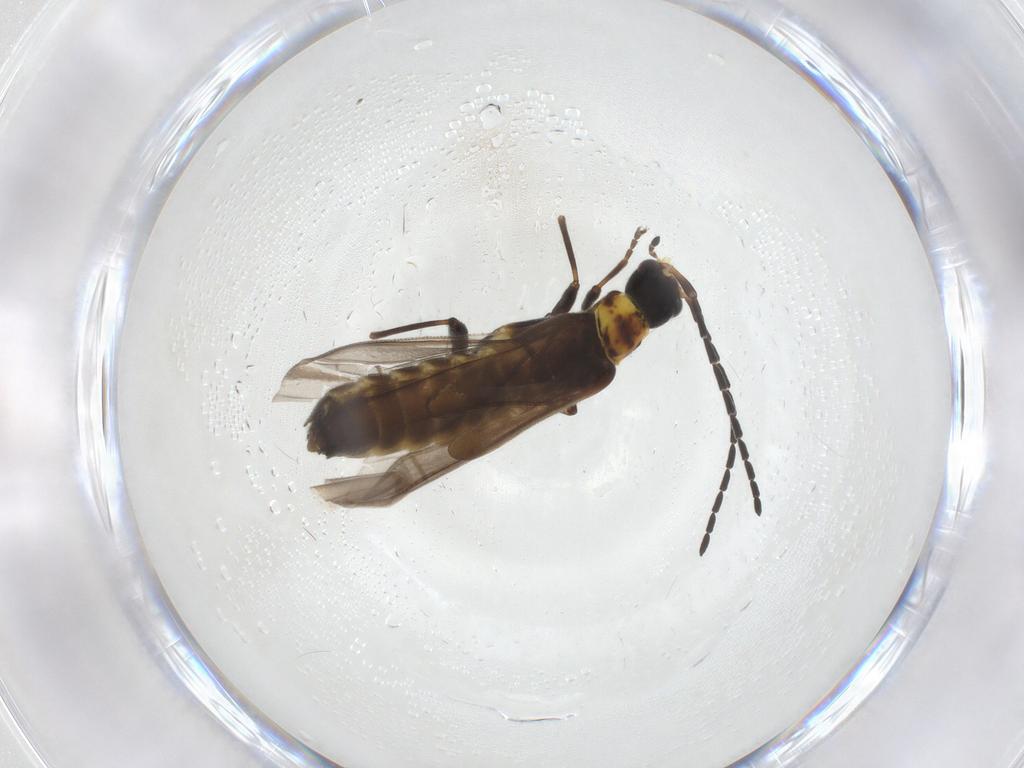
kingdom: Animalia
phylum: Arthropoda
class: Insecta
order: Coleoptera
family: Cantharidae
